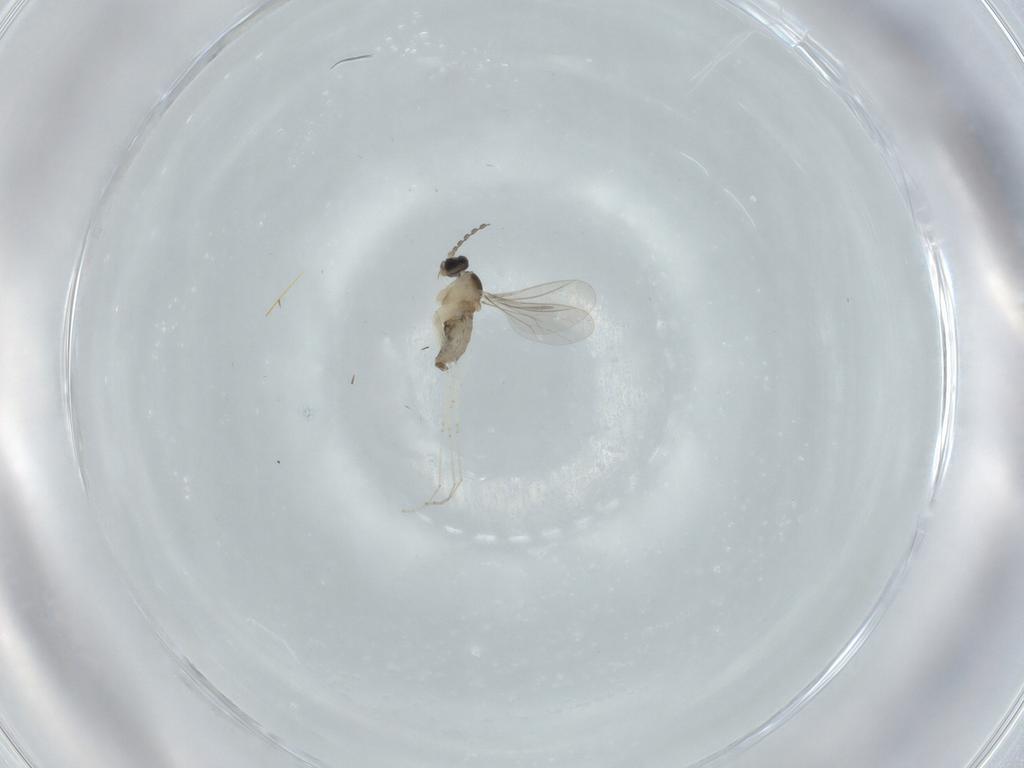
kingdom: Animalia
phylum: Arthropoda
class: Insecta
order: Diptera
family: Cecidomyiidae
